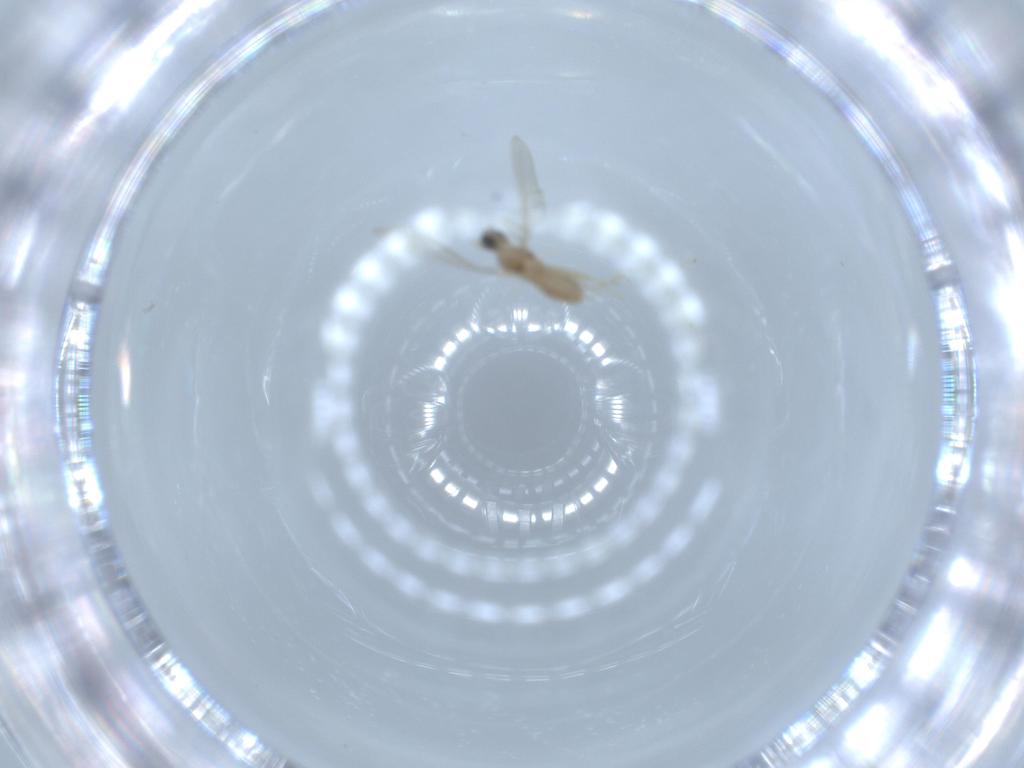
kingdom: Animalia
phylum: Arthropoda
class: Insecta
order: Diptera
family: Cecidomyiidae
